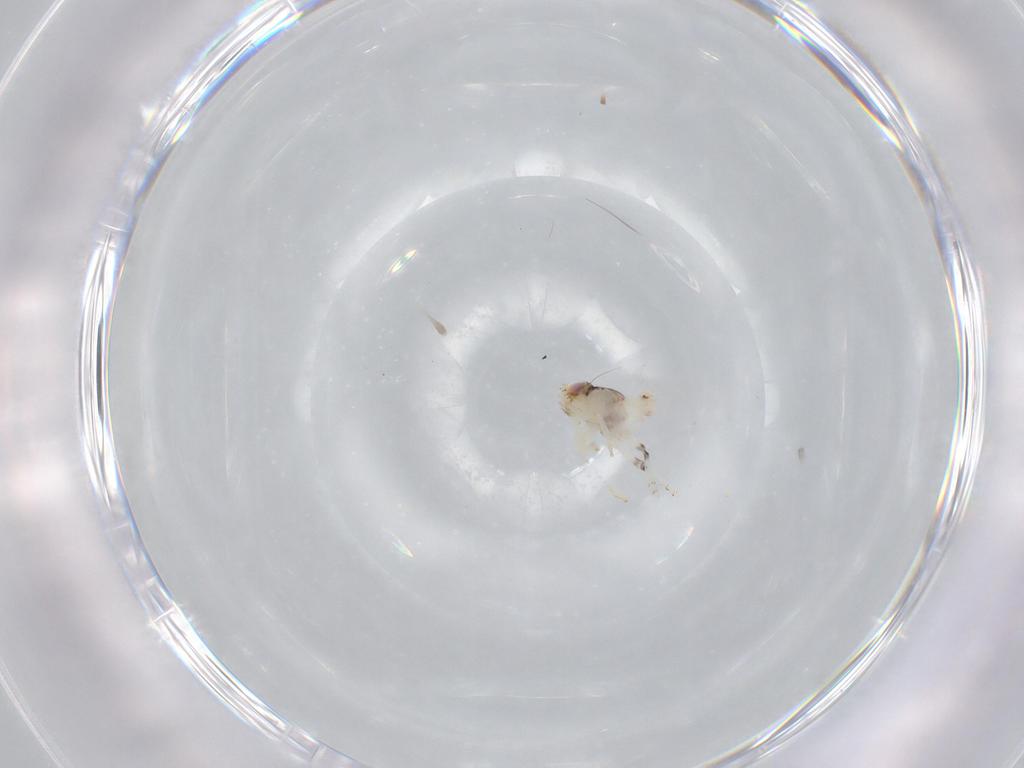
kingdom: Animalia
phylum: Arthropoda
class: Insecta
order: Hemiptera
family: Nogodinidae
